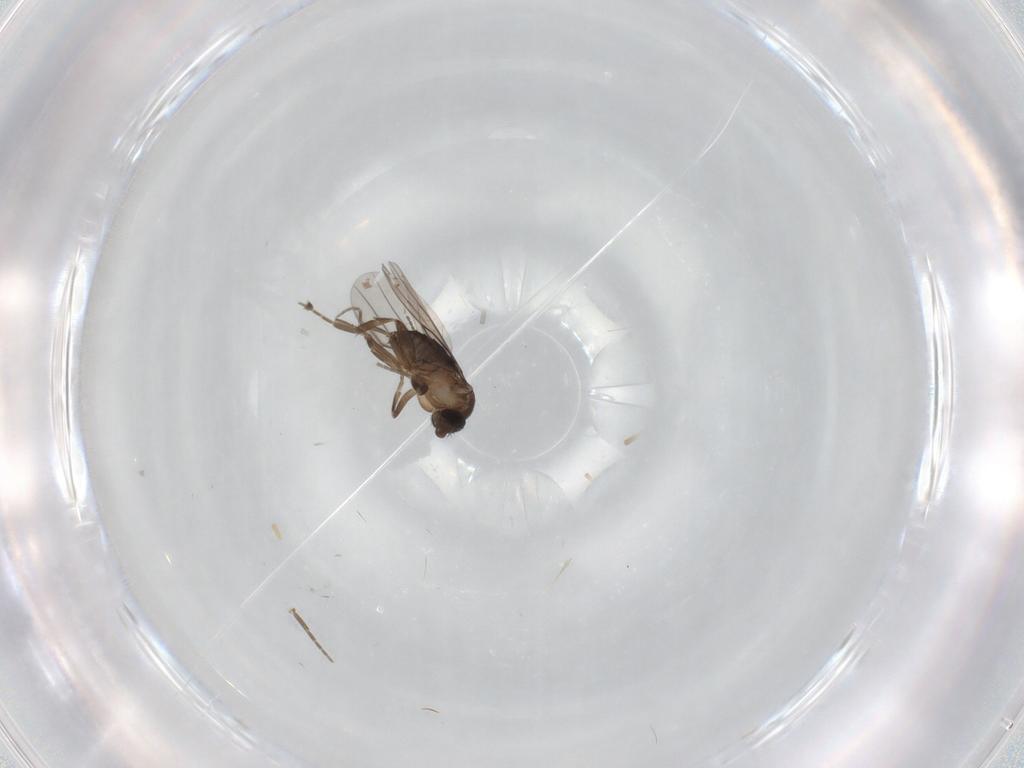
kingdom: Animalia
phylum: Arthropoda
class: Insecta
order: Diptera
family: Phoridae
